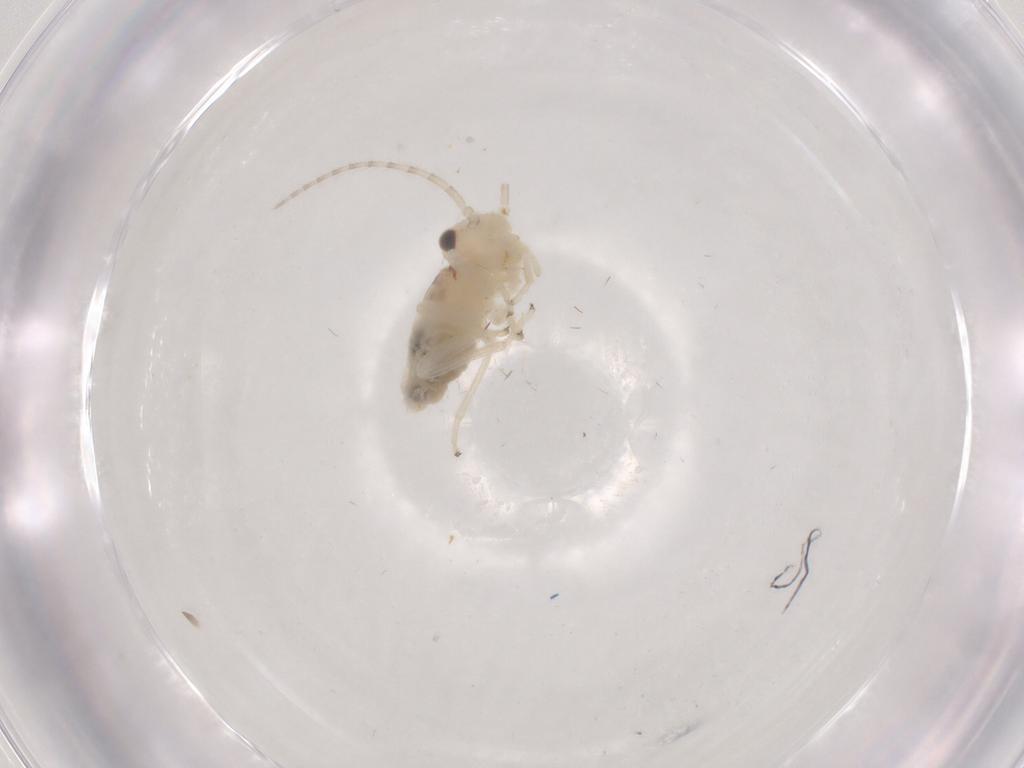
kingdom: Animalia
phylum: Arthropoda
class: Insecta
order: Psocodea
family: Amphipsocidae
